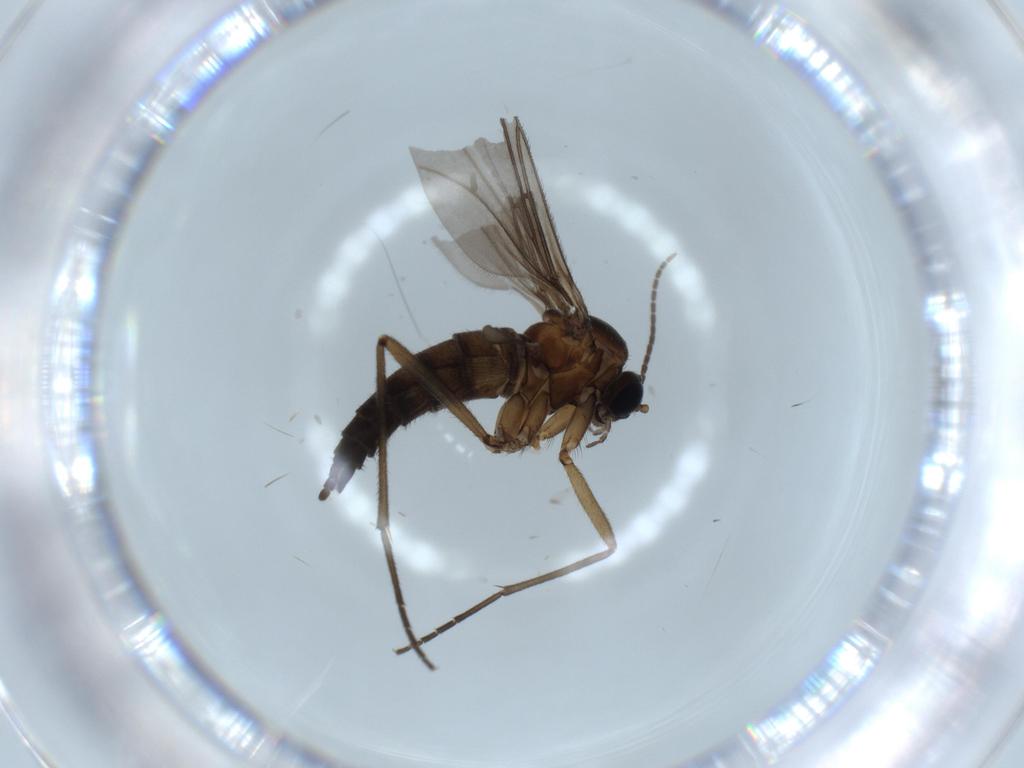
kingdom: Animalia
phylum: Arthropoda
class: Insecta
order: Diptera
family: Sciaridae
